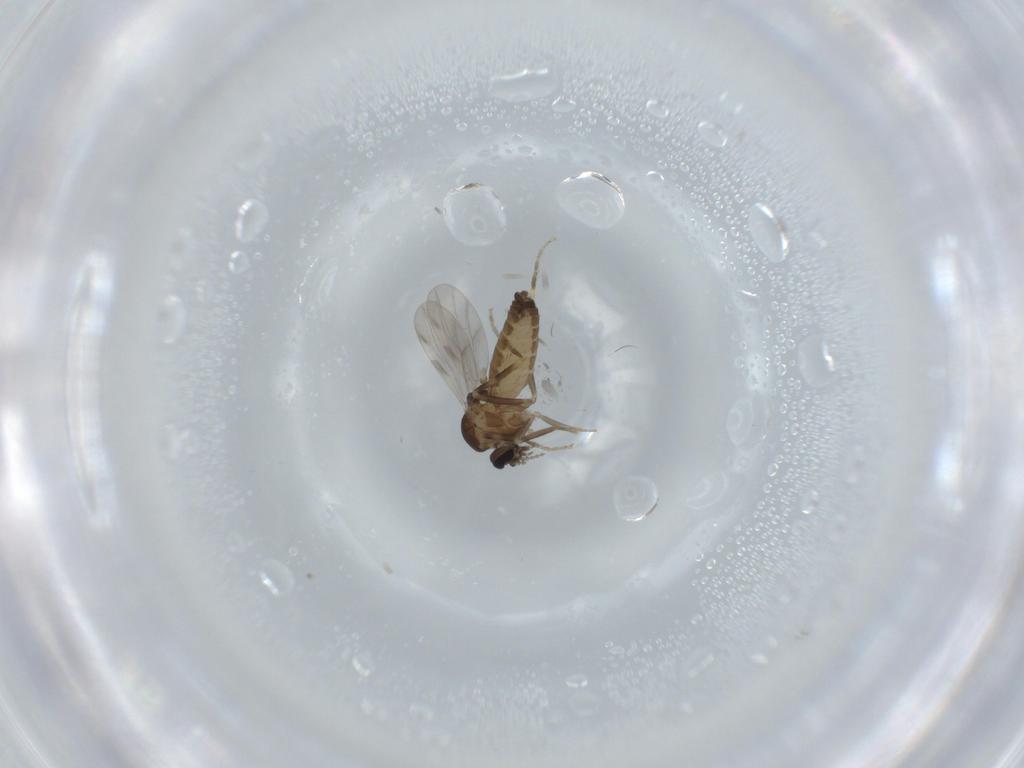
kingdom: Animalia
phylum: Arthropoda
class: Insecta
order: Diptera
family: Ceratopogonidae
